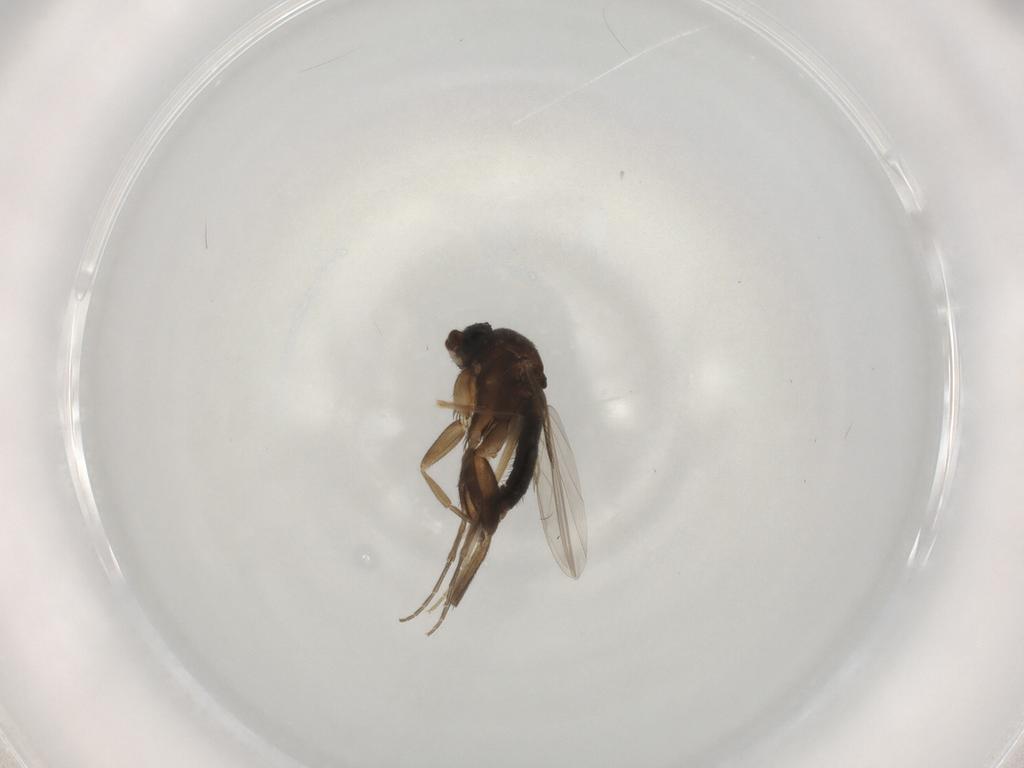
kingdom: Animalia
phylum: Arthropoda
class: Insecta
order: Diptera
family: Phoridae
